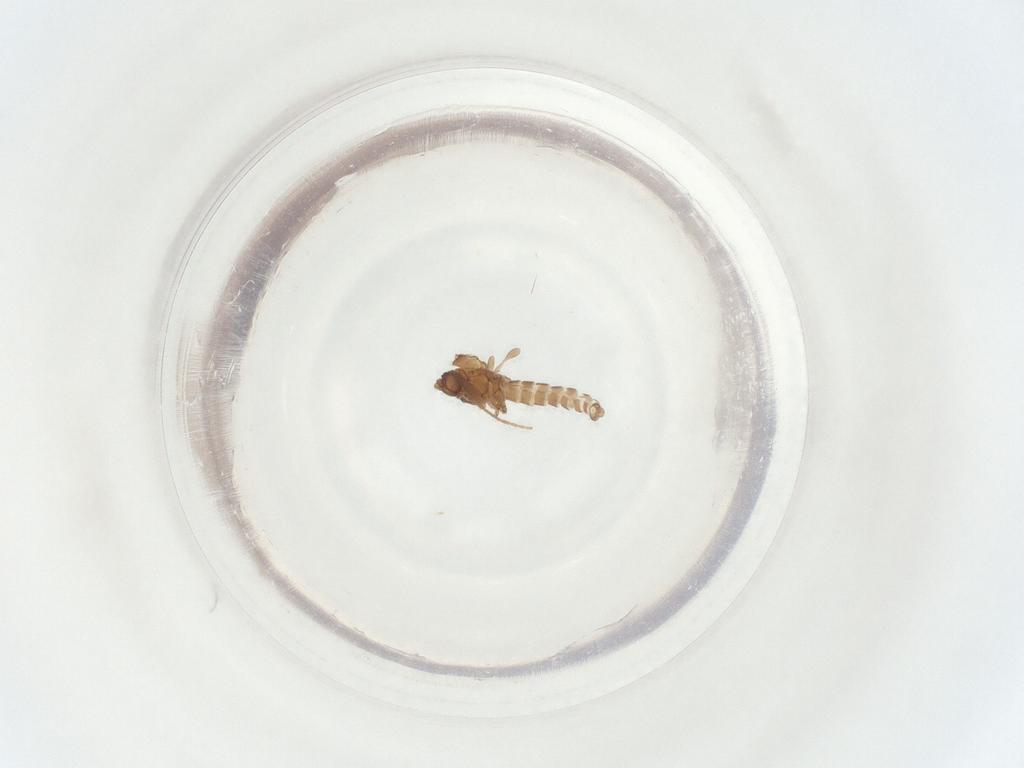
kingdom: Animalia
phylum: Arthropoda
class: Insecta
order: Diptera
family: Sciaridae
